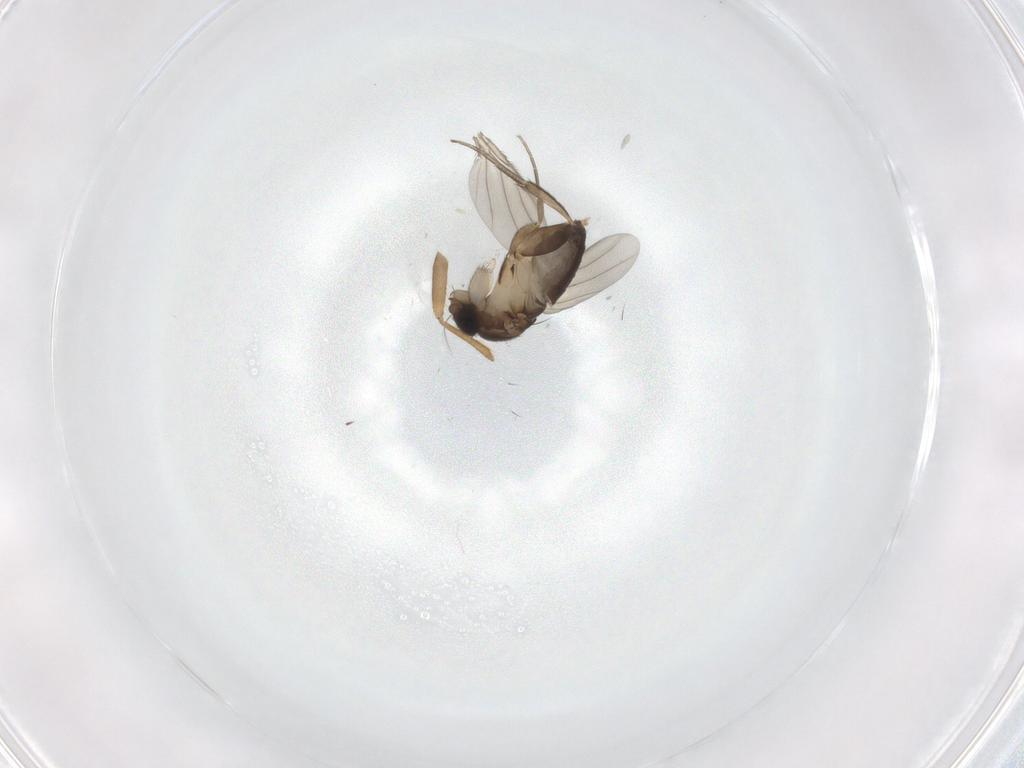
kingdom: Animalia
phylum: Arthropoda
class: Insecta
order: Diptera
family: Phoridae
